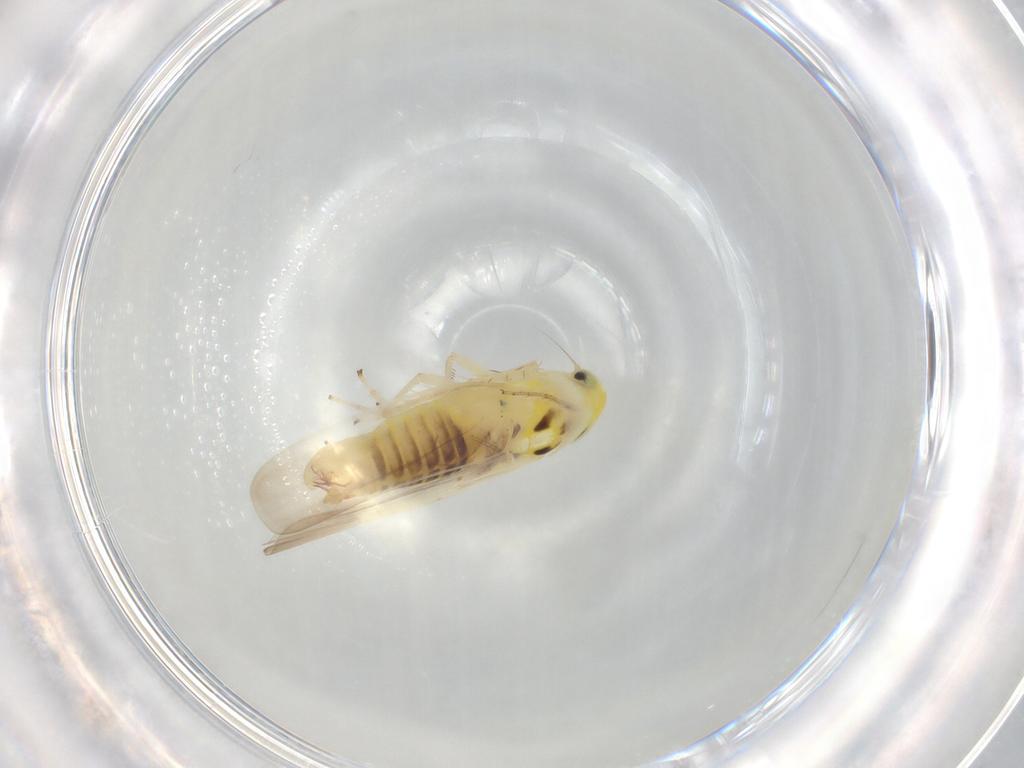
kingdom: Animalia
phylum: Arthropoda
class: Insecta
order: Hemiptera
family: Cicadellidae
